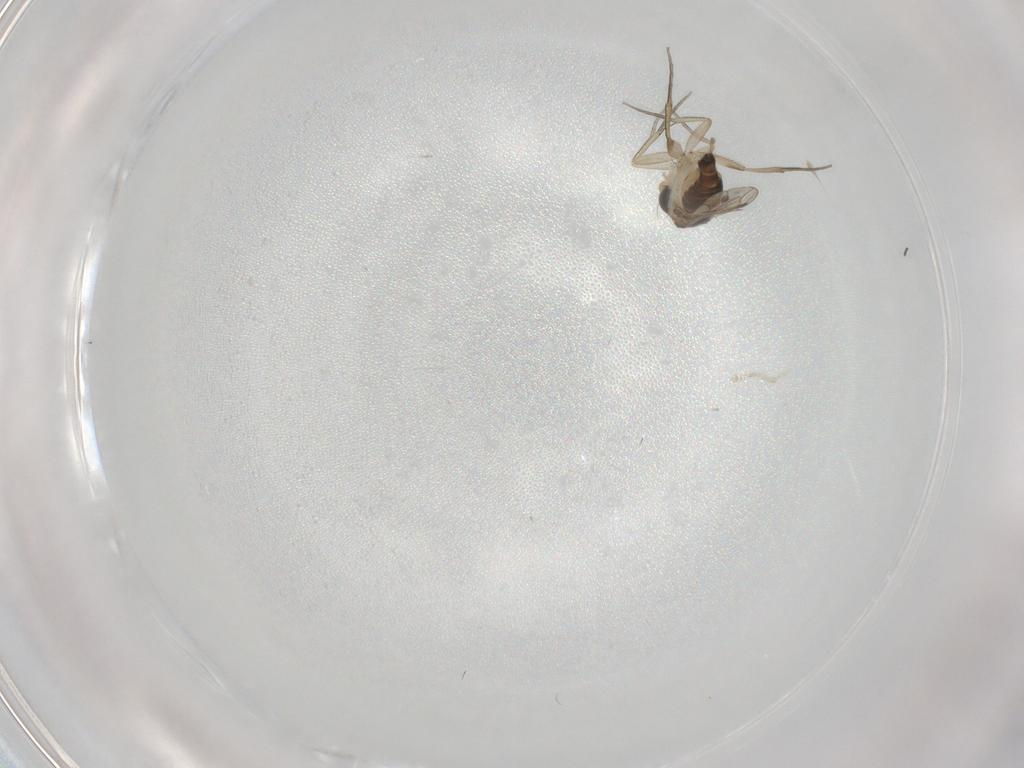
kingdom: Animalia
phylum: Arthropoda
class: Insecta
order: Diptera
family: Phoridae
